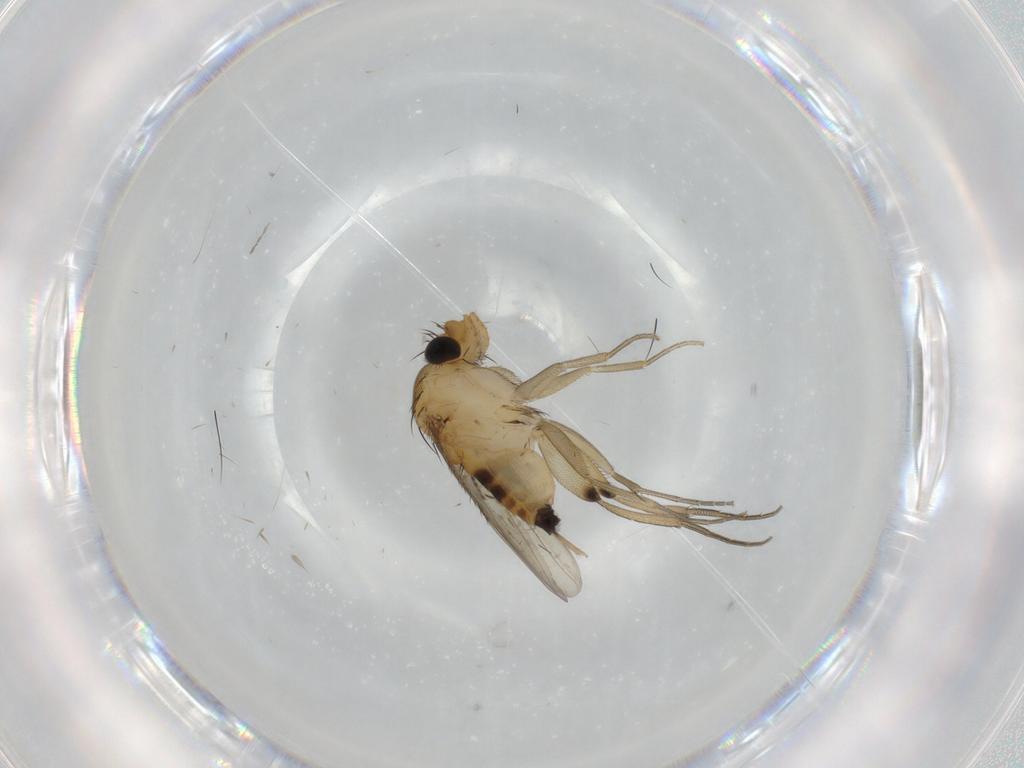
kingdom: Animalia
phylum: Arthropoda
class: Insecta
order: Diptera
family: Phoridae
